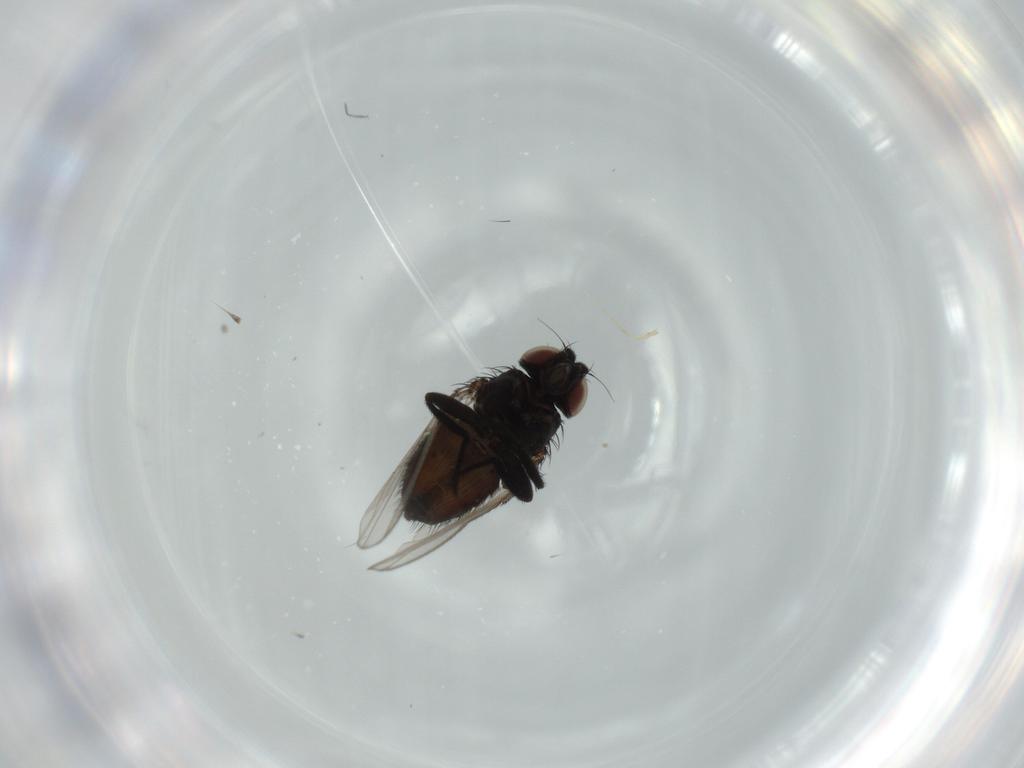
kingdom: Animalia
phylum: Arthropoda
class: Insecta
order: Diptera
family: Milichiidae
